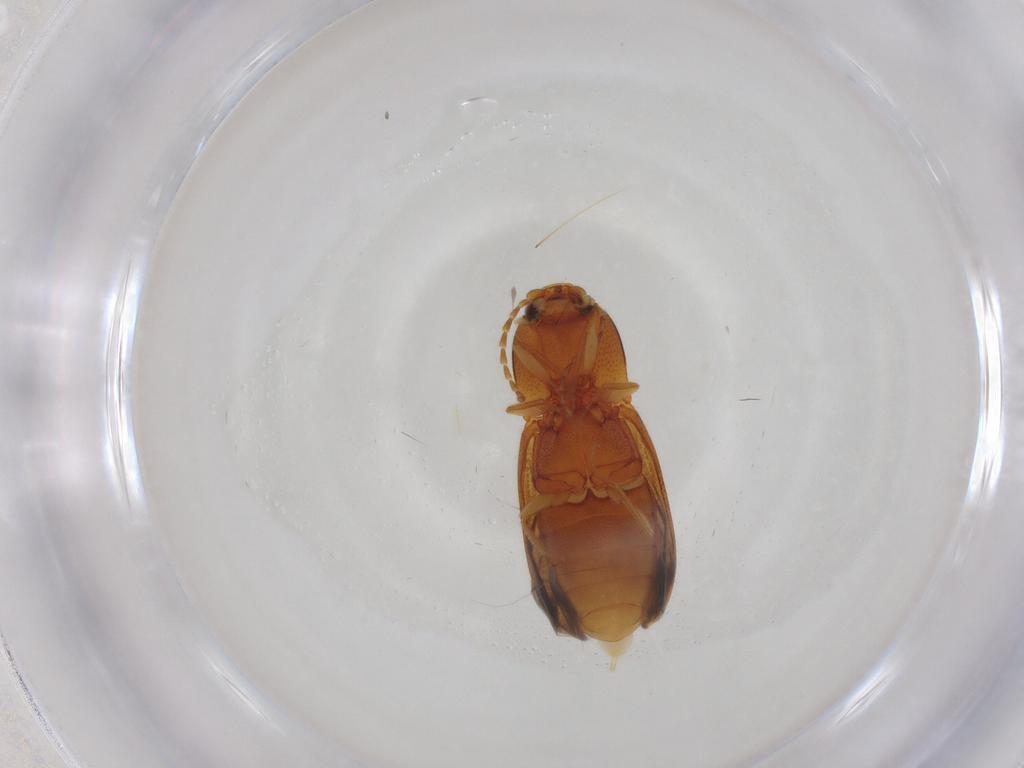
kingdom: Animalia
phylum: Arthropoda
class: Insecta
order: Coleoptera
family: Elateridae
